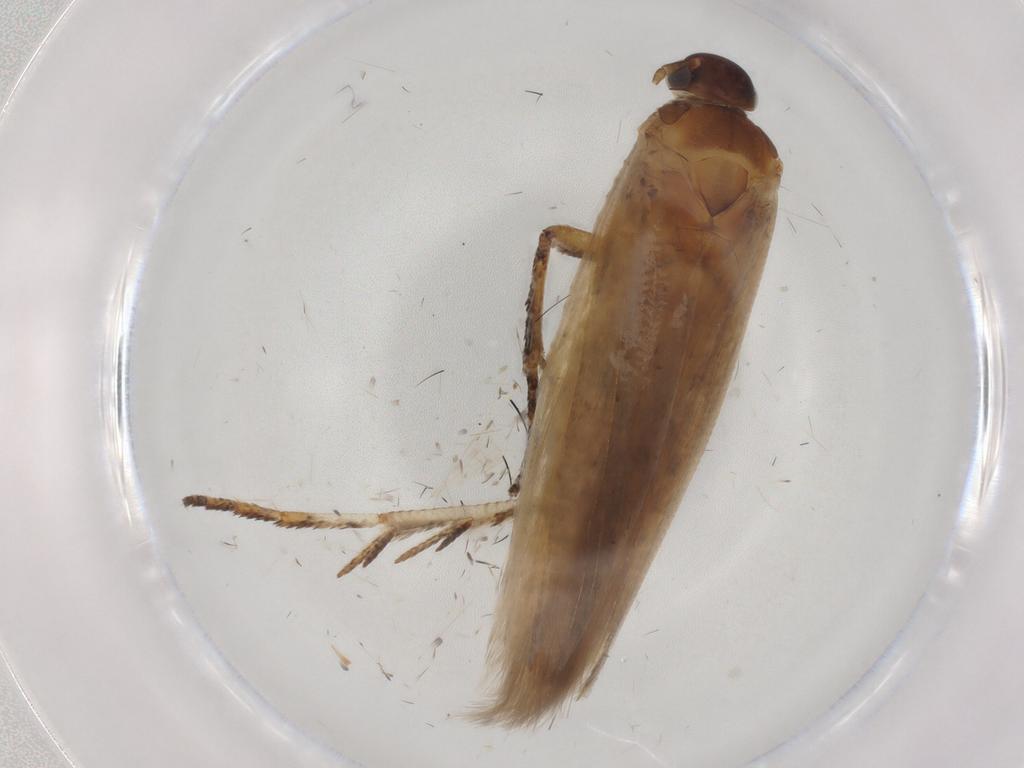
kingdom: Animalia
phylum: Arthropoda
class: Insecta
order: Lepidoptera
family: Gelechiidae
